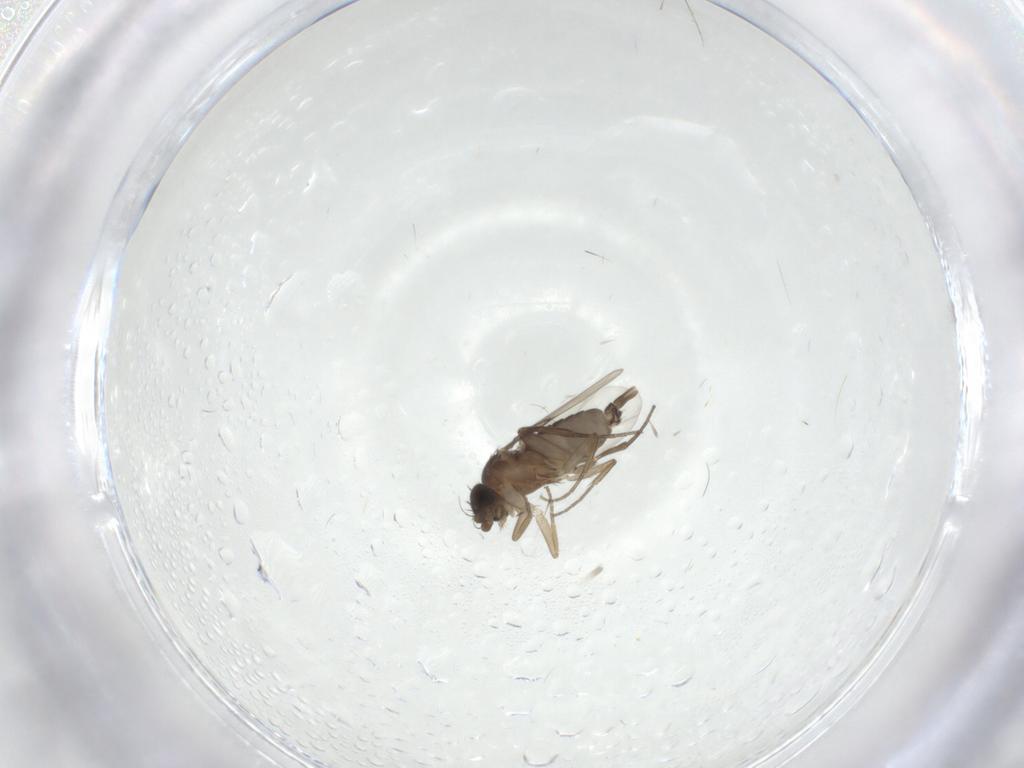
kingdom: Animalia
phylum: Arthropoda
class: Insecta
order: Diptera
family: Phoridae
